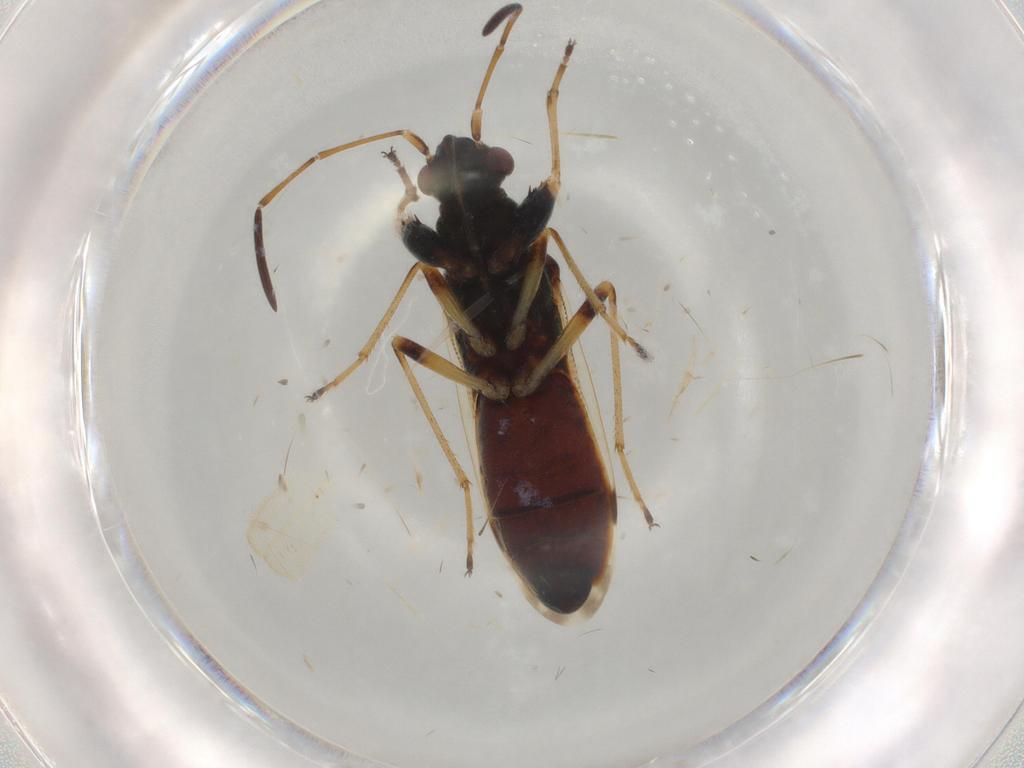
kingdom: Animalia
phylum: Arthropoda
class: Insecta
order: Hemiptera
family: Rhyparochromidae
